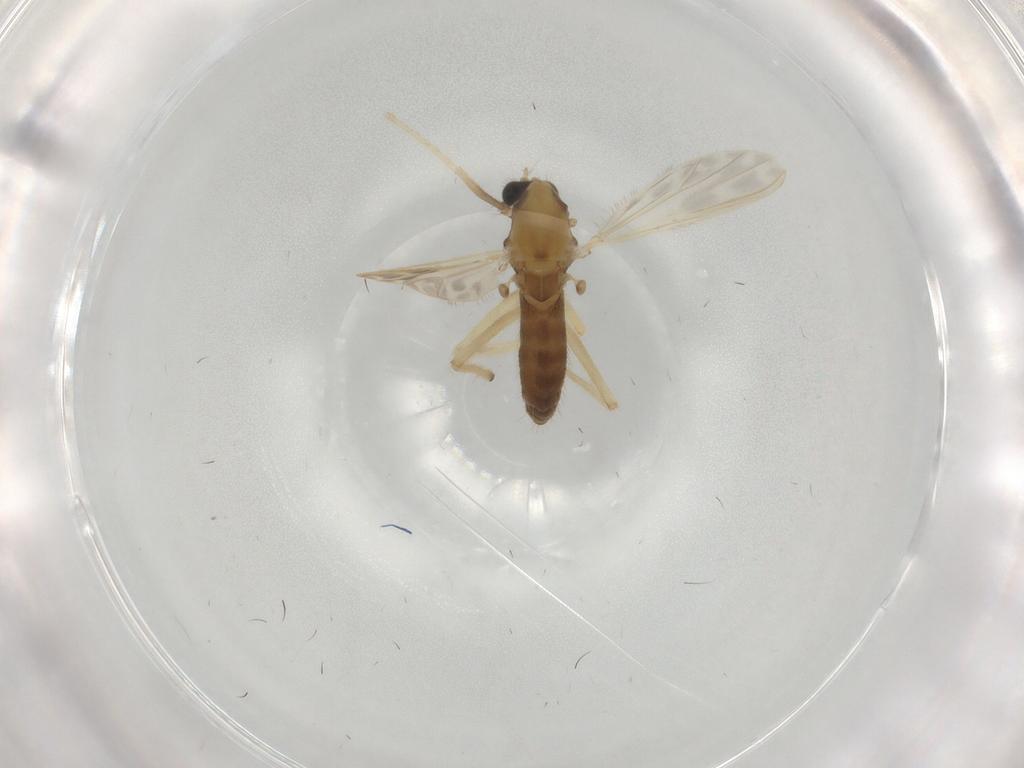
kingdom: Animalia
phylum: Arthropoda
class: Insecta
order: Diptera
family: Chironomidae
